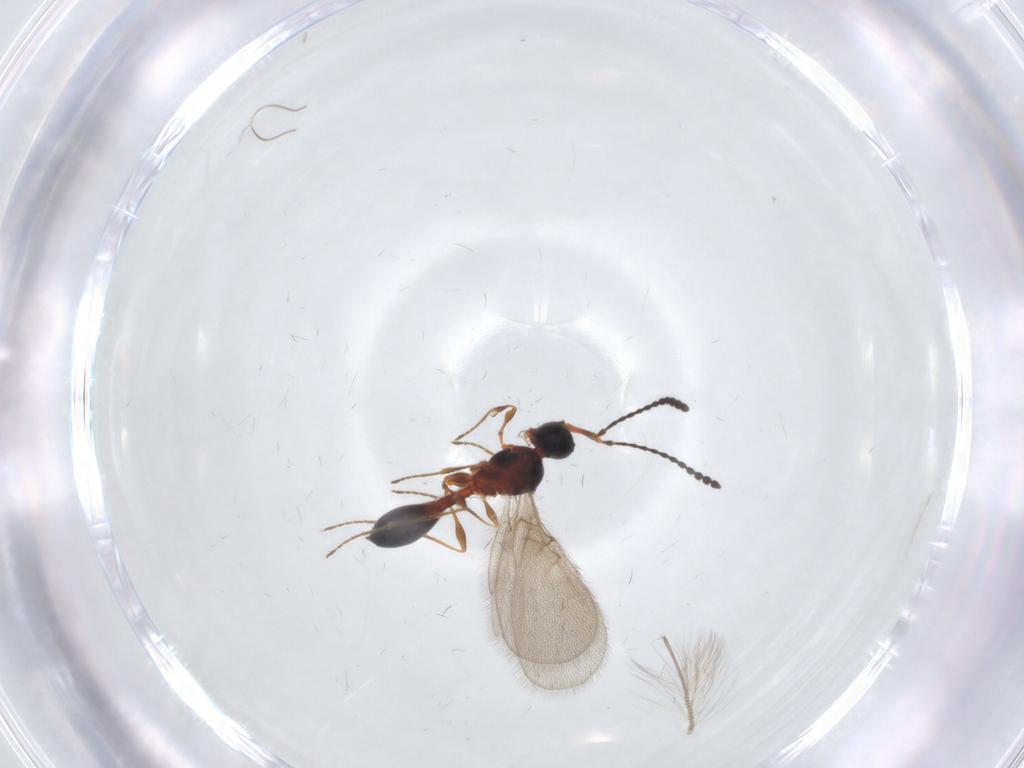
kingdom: Animalia
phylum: Arthropoda
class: Insecta
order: Hymenoptera
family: Diapriidae
